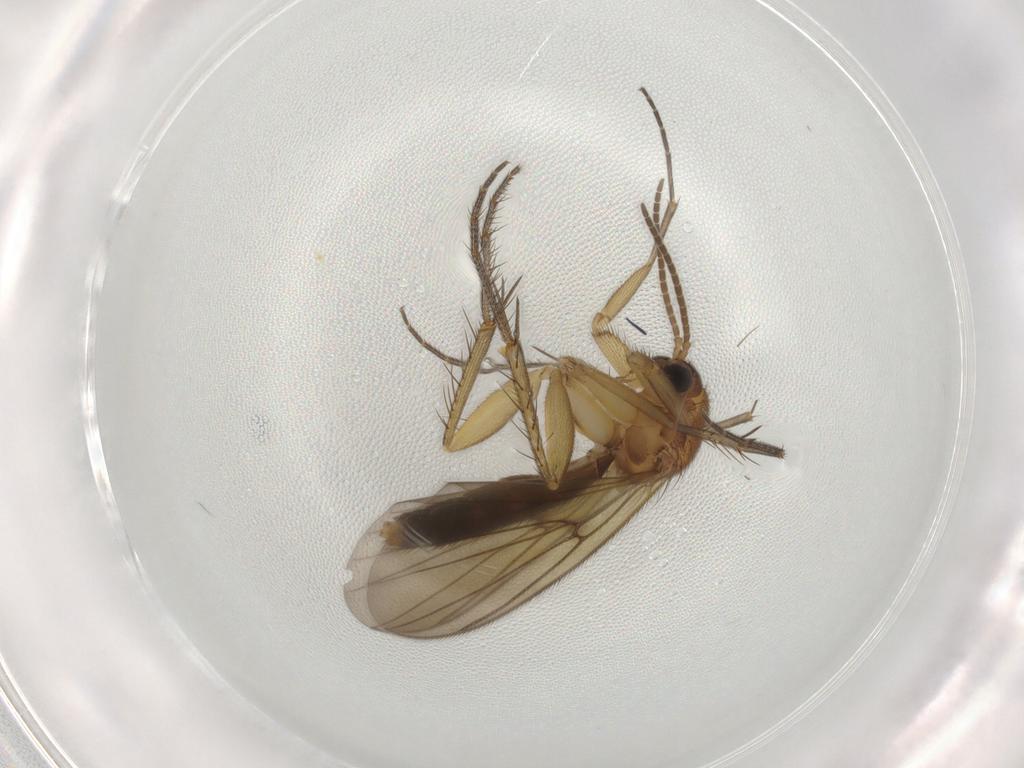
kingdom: Animalia
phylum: Arthropoda
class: Insecta
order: Diptera
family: Cecidomyiidae
